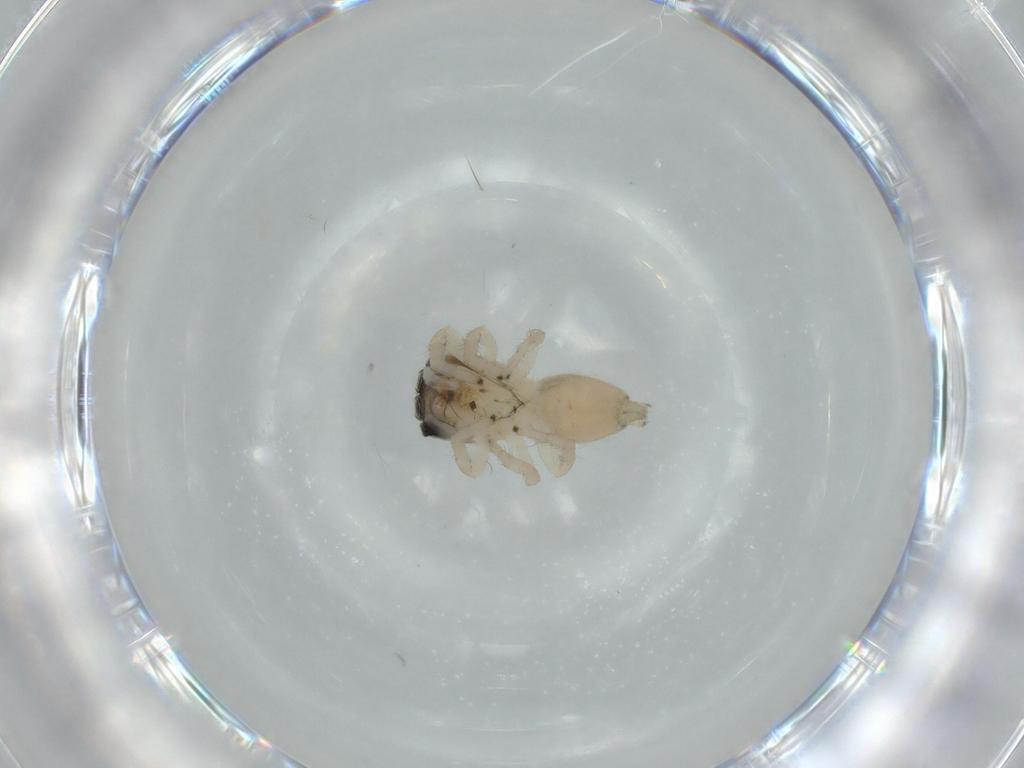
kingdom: Animalia
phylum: Arthropoda
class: Arachnida
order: Araneae
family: Salticidae
